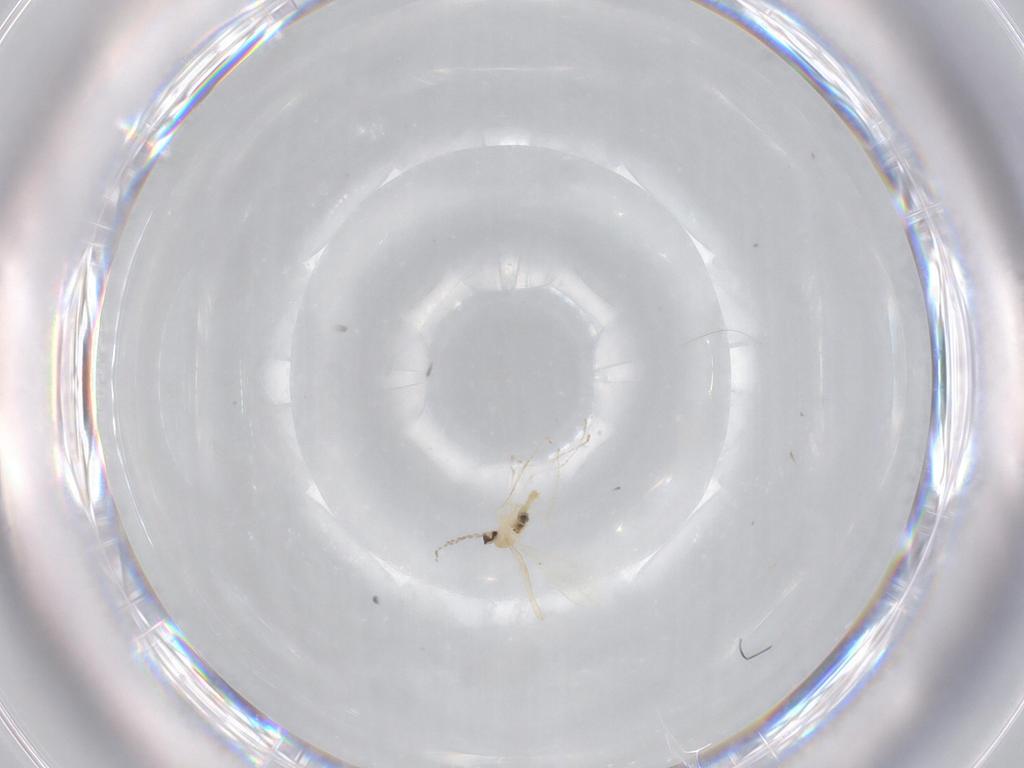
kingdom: Animalia
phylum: Arthropoda
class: Insecta
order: Diptera
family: Cecidomyiidae
